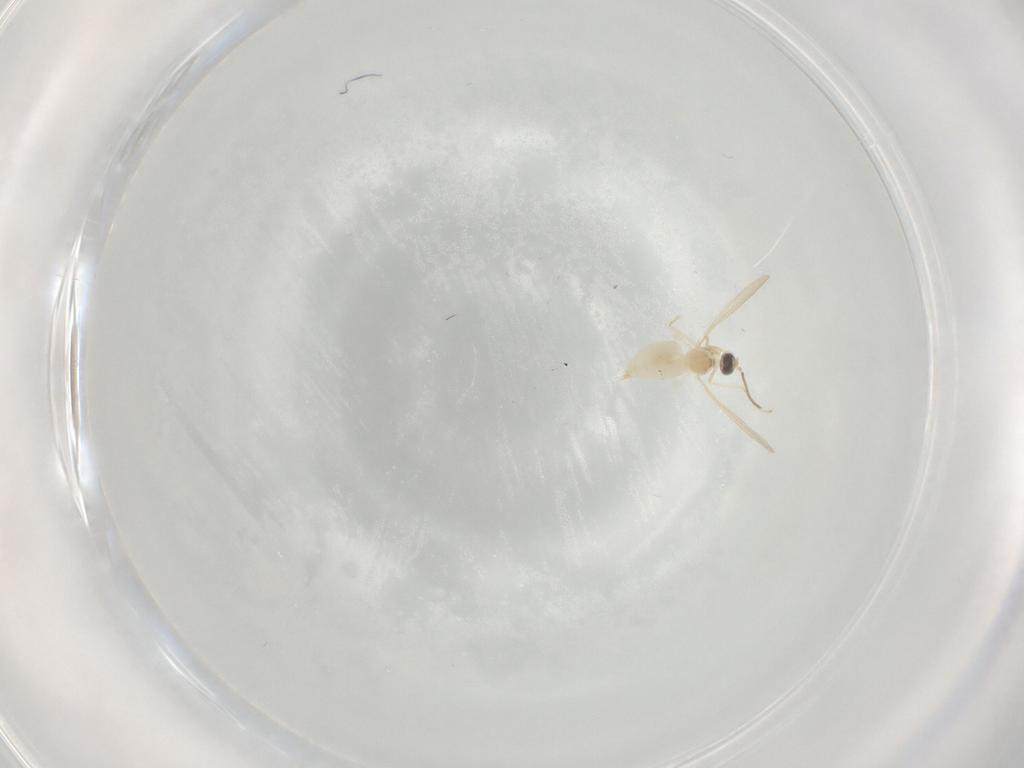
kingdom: Animalia
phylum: Arthropoda
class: Insecta
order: Diptera
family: Cecidomyiidae
